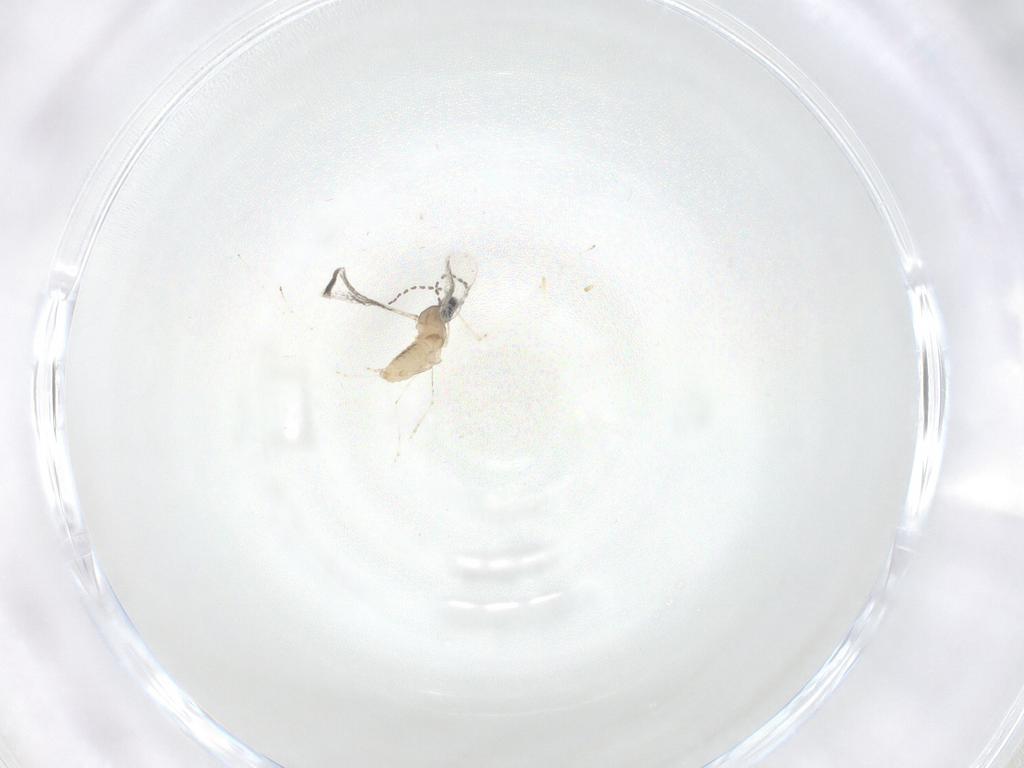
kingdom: Animalia
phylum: Arthropoda
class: Insecta
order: Diptera
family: Cecidomyiidae
